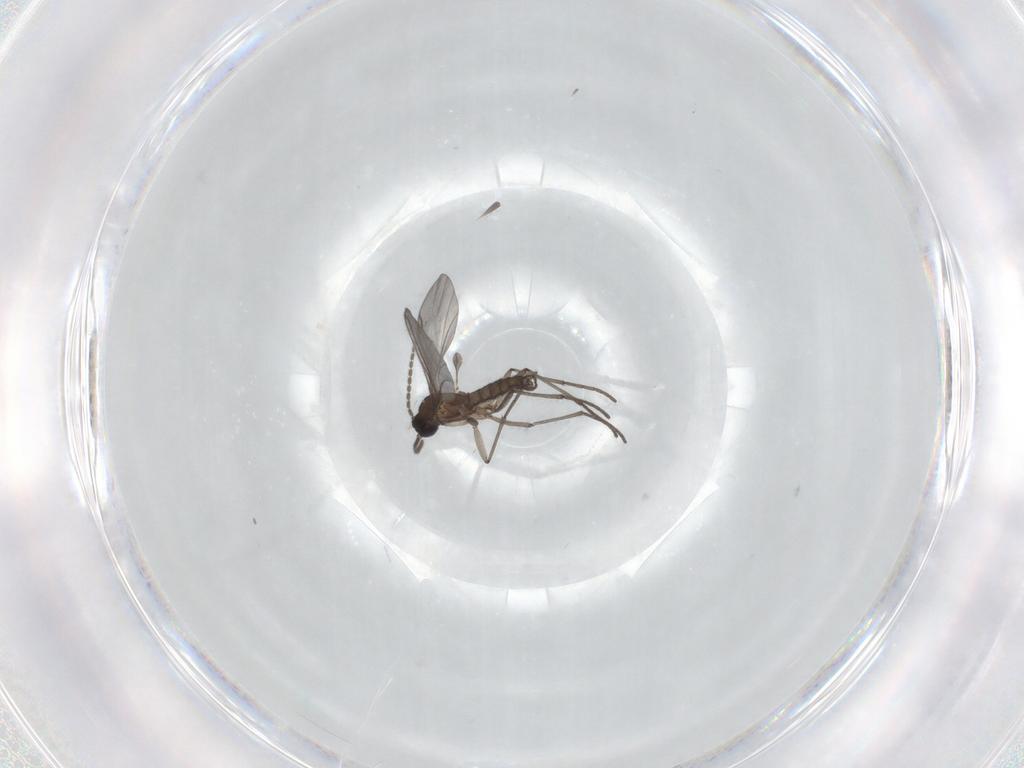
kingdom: Animalia
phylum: Arthropoda
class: Insecta
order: Diptera
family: Sciaridae
